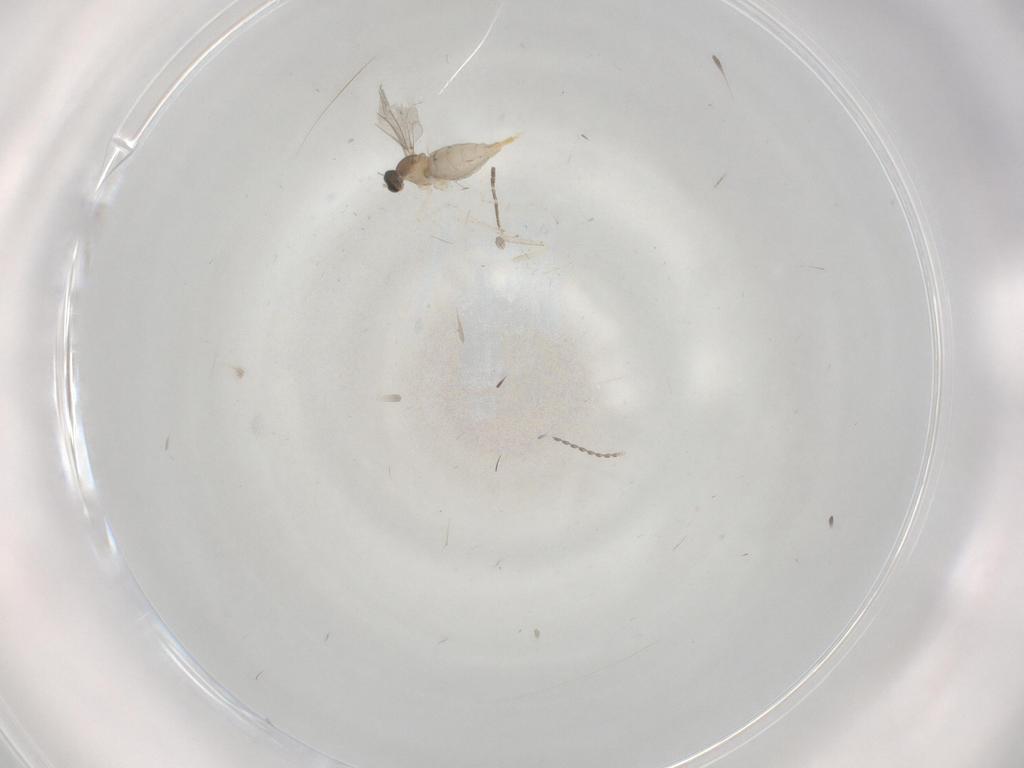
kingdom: Animalia
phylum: Arthropoda
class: Insecta
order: Diptera
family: Cecidomyiidae
